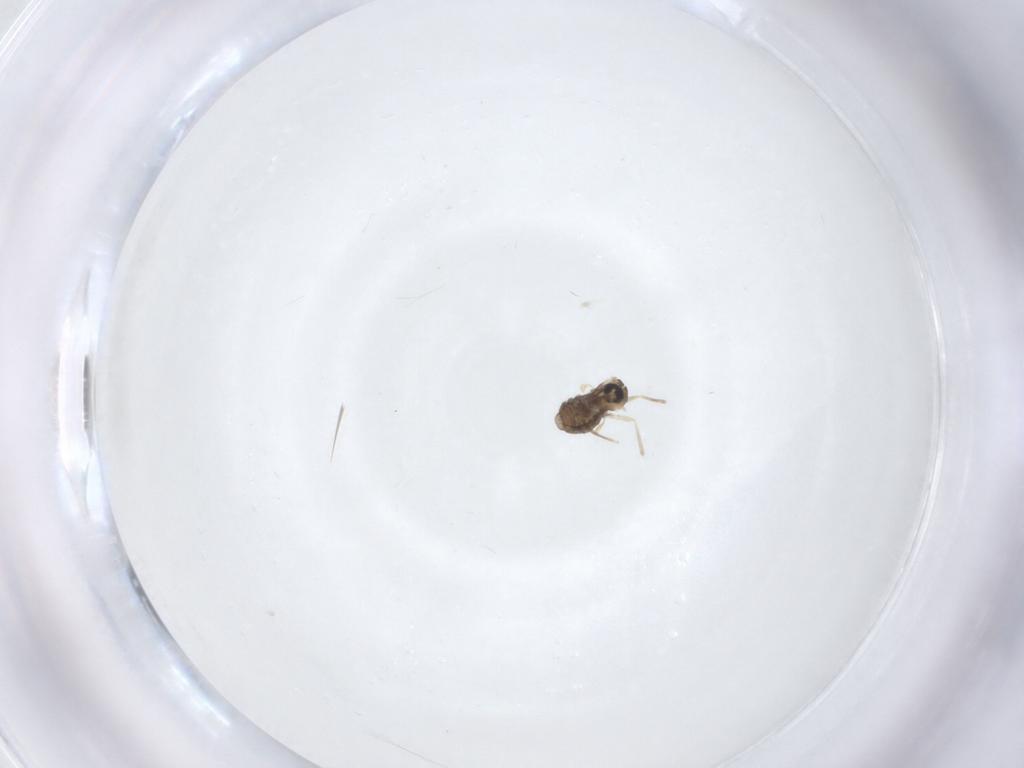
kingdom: Animalia
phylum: Arthropoda
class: Insecta
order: Diptera
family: Cecidomyiidae
